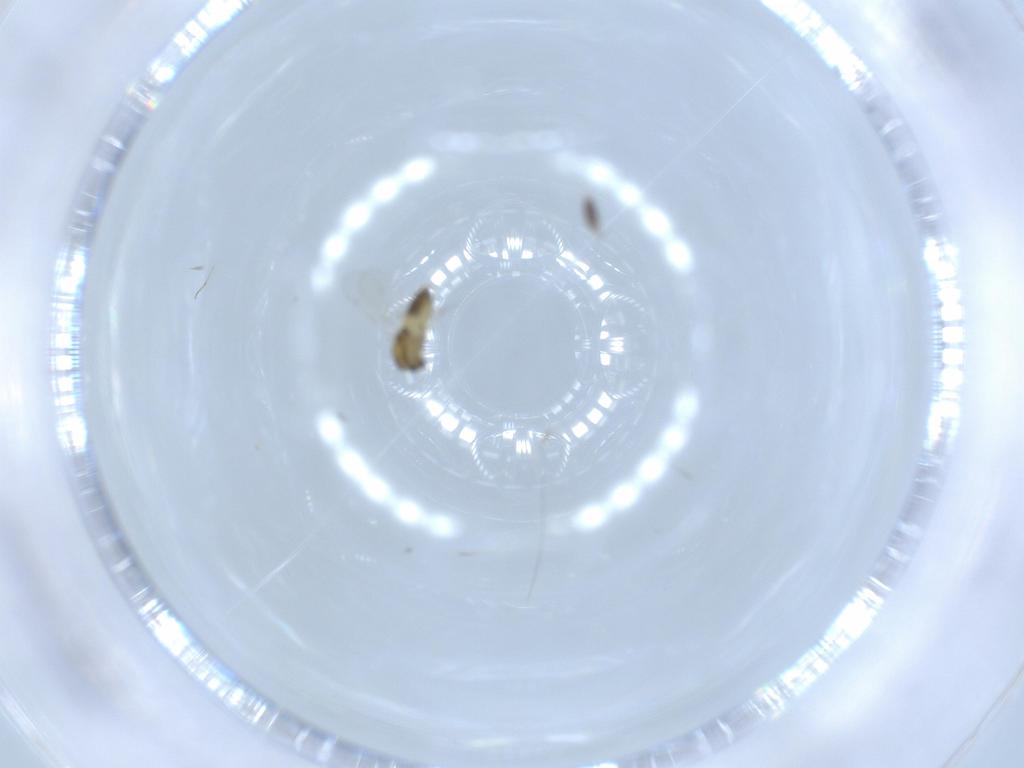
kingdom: Animalia
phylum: Arthropoda
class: Insecta
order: Diptera
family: Chironomidae
